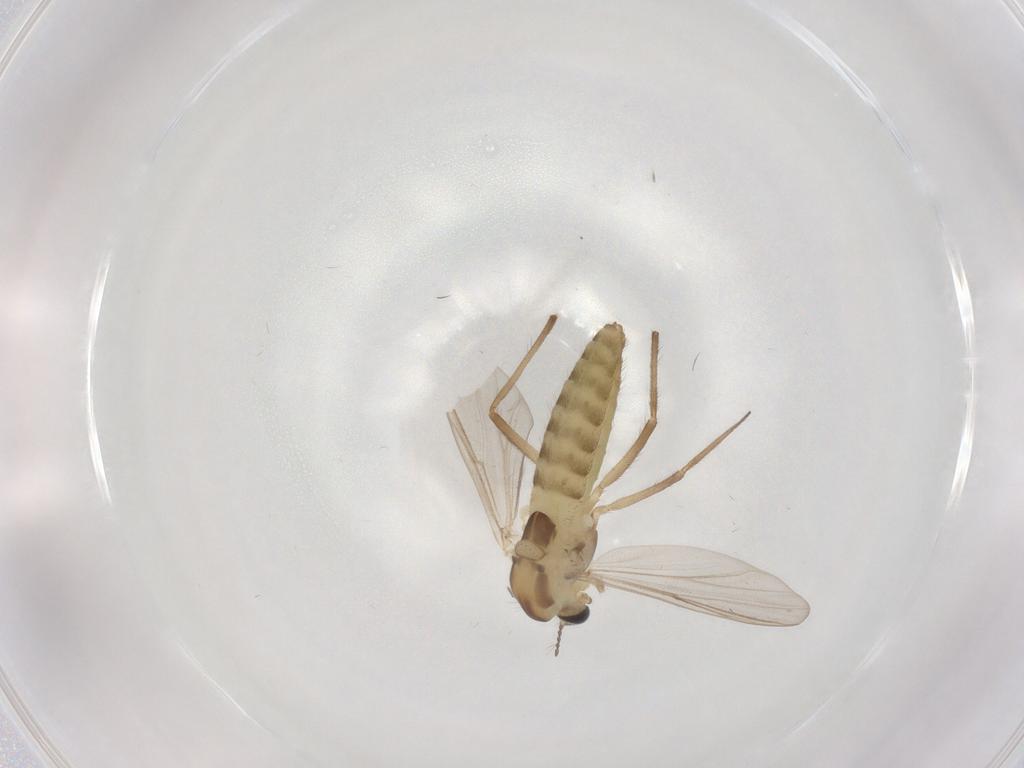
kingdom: Animalia
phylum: Arthropoda
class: Insecta
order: Diptera
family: Chironomidae
